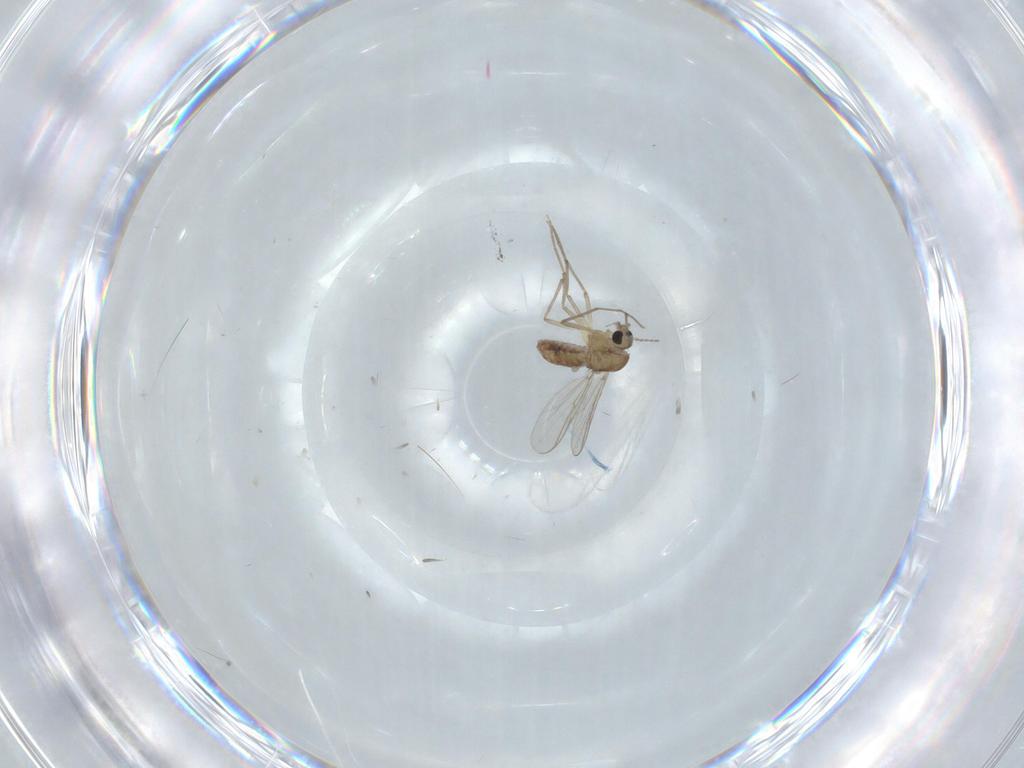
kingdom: Animalia
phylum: Arthropoda
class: Insecta
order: Diptera
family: Chironomidae
